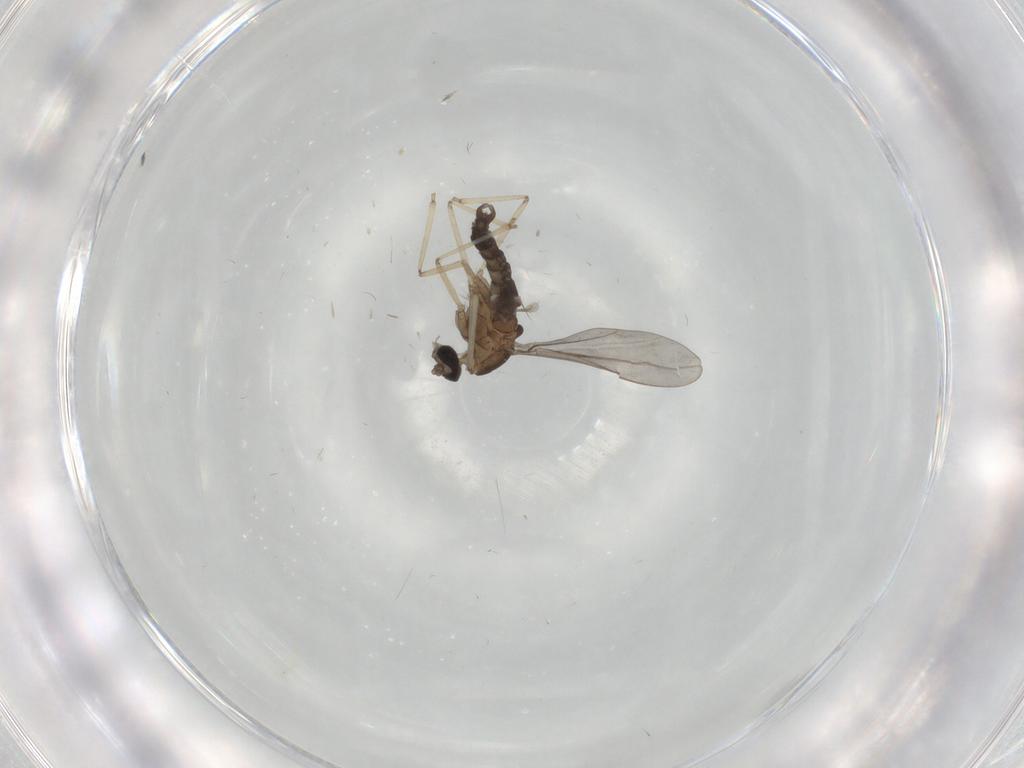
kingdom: Animalia
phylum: Arthropoda
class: Insecta
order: Diptera
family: Cecidomyiidae
